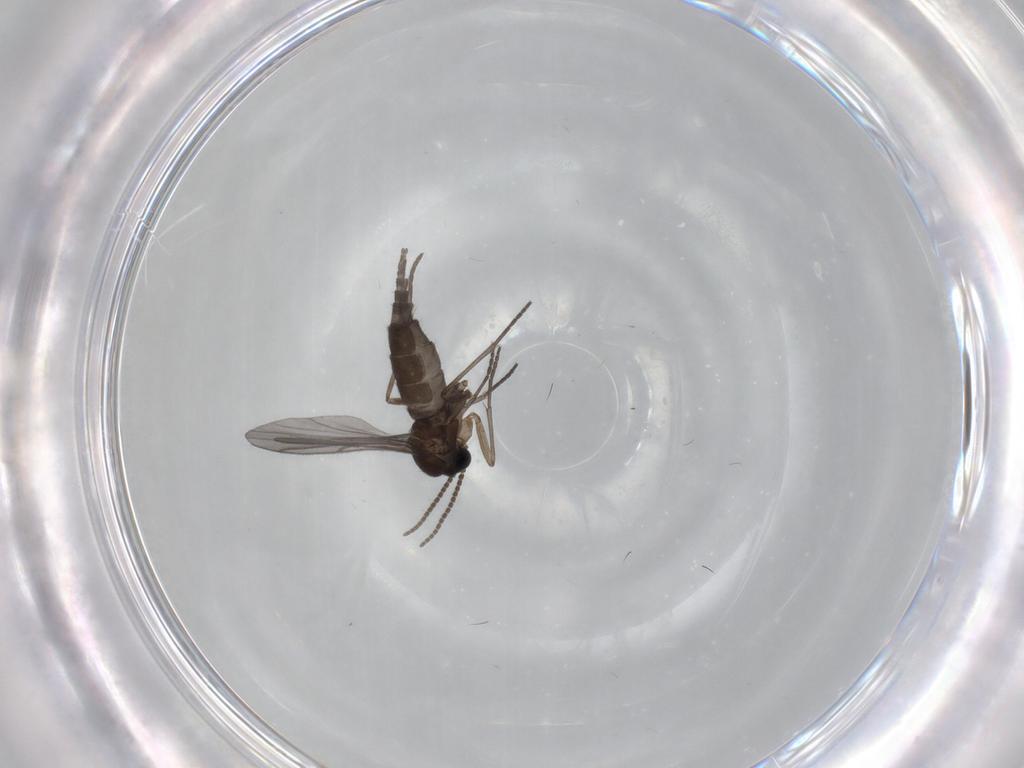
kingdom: Animalia
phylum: Arthropoda
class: Insecta
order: Diptera
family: Sciaridae
